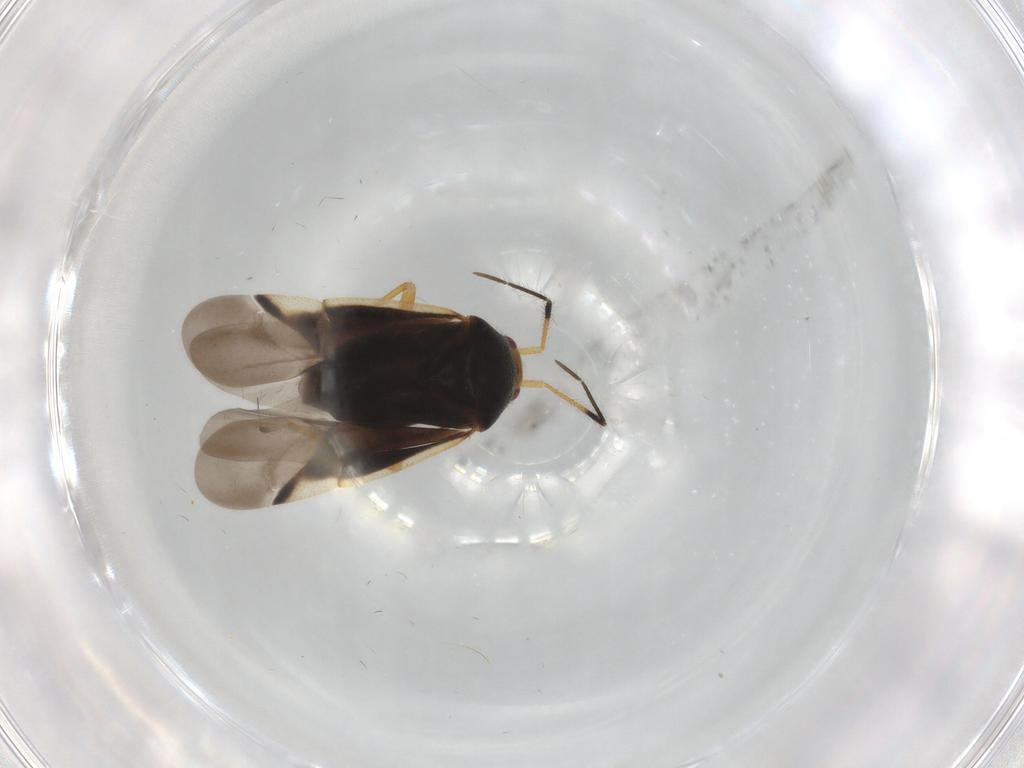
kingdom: Animalia
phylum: Arthropoda
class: Insecta
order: Hemiptera
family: Miridae
